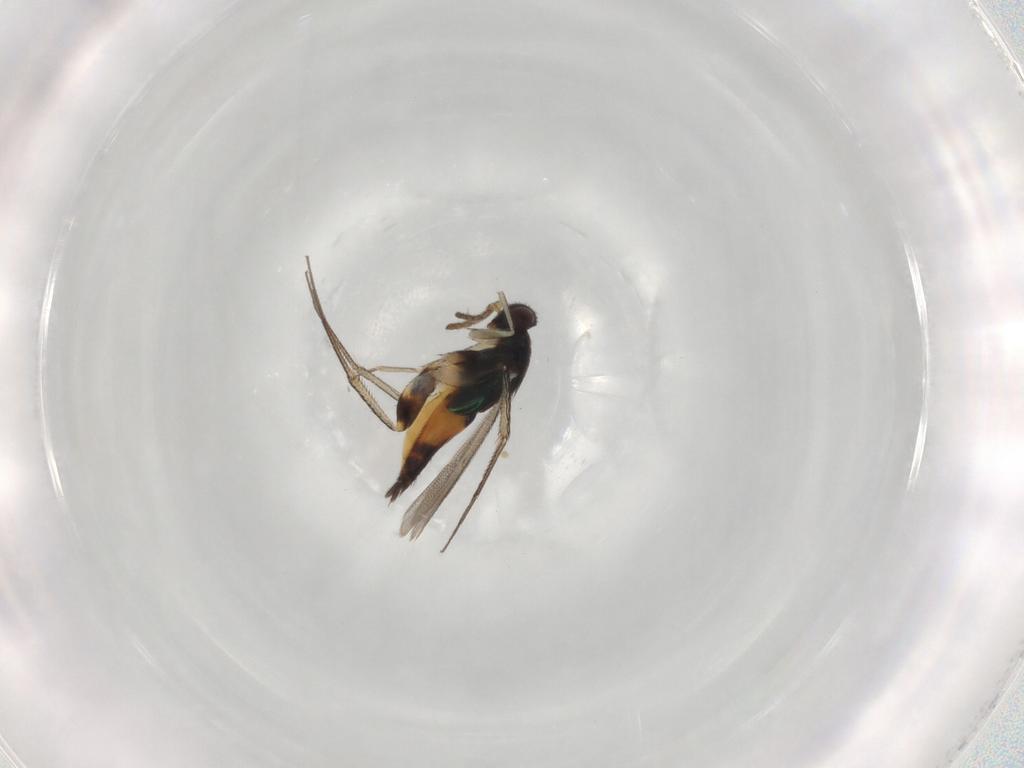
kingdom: Animalia
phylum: Arthropoda
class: Insecta
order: Hymenoptera
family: Eulophidae
